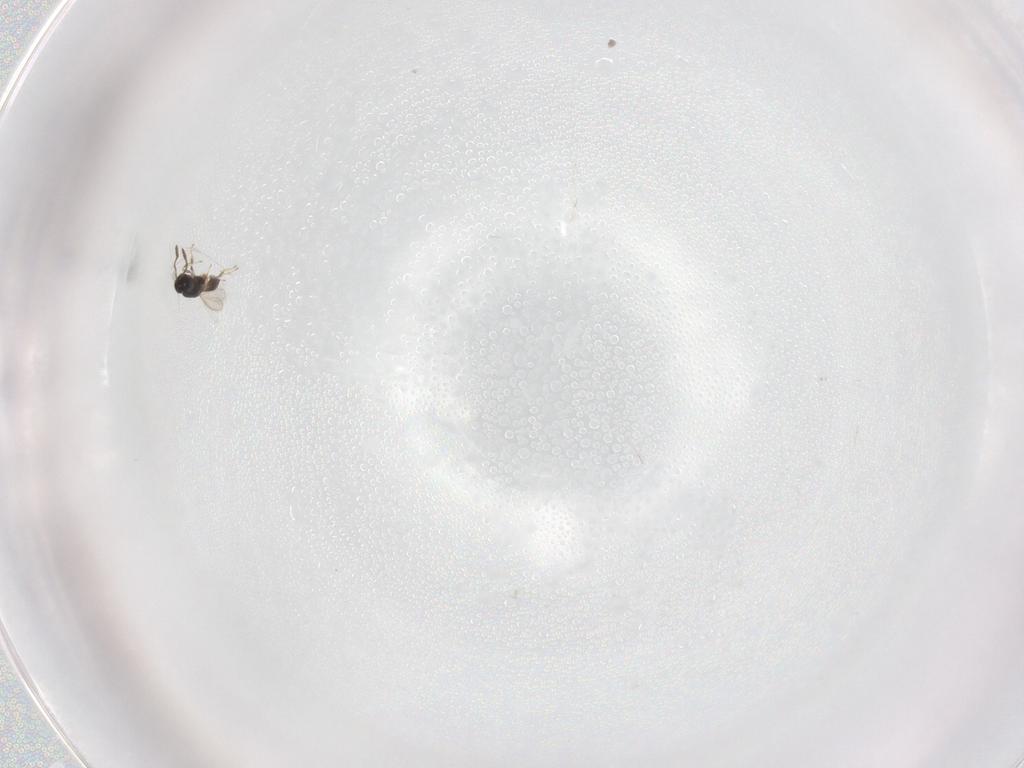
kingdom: Animalia
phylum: Arthropoda
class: Insecta
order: Hymenoptera
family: Scelionidae
